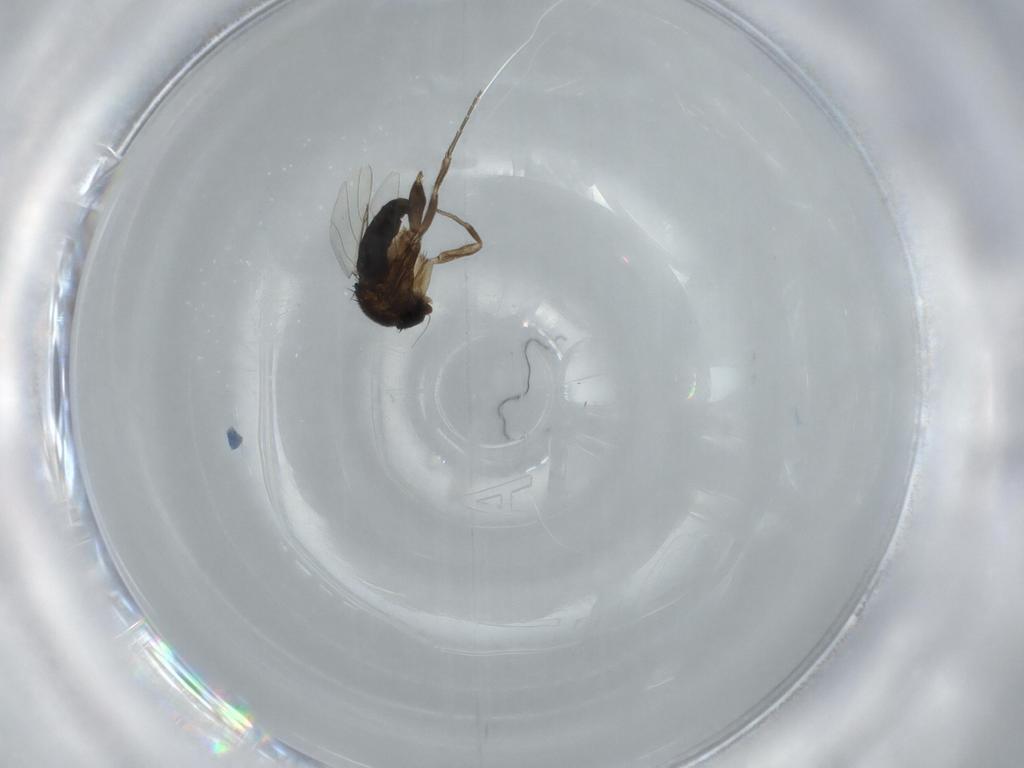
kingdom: Animalia
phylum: Arthropoda
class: Insecta
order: Diptera
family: Phoridae
